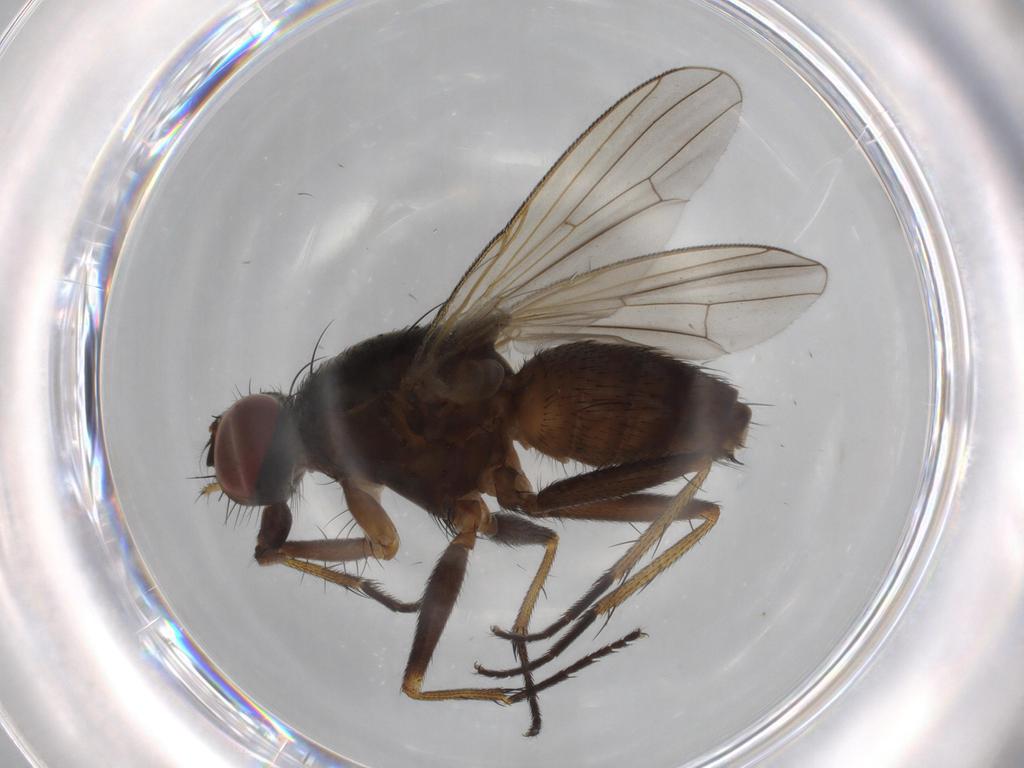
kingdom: Animalia
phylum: Arthropoda
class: Insecta
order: Diptera
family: Muscidae
